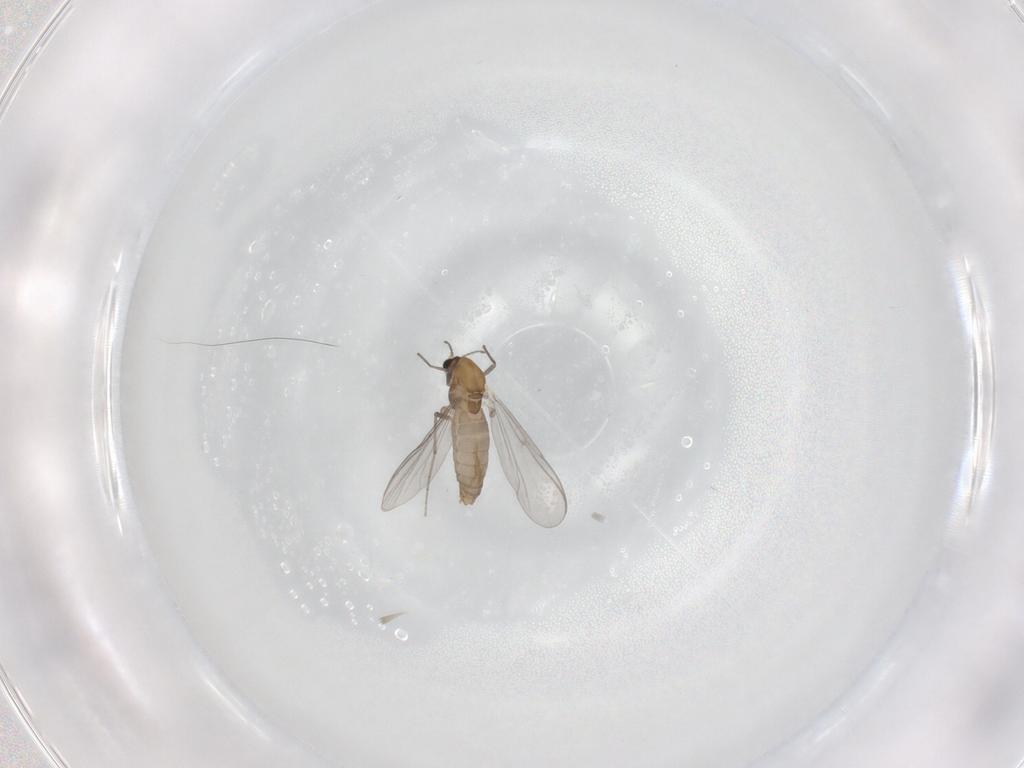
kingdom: Animalia
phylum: Arthropoda
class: Insecta
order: Diptera
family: Chironomidae
